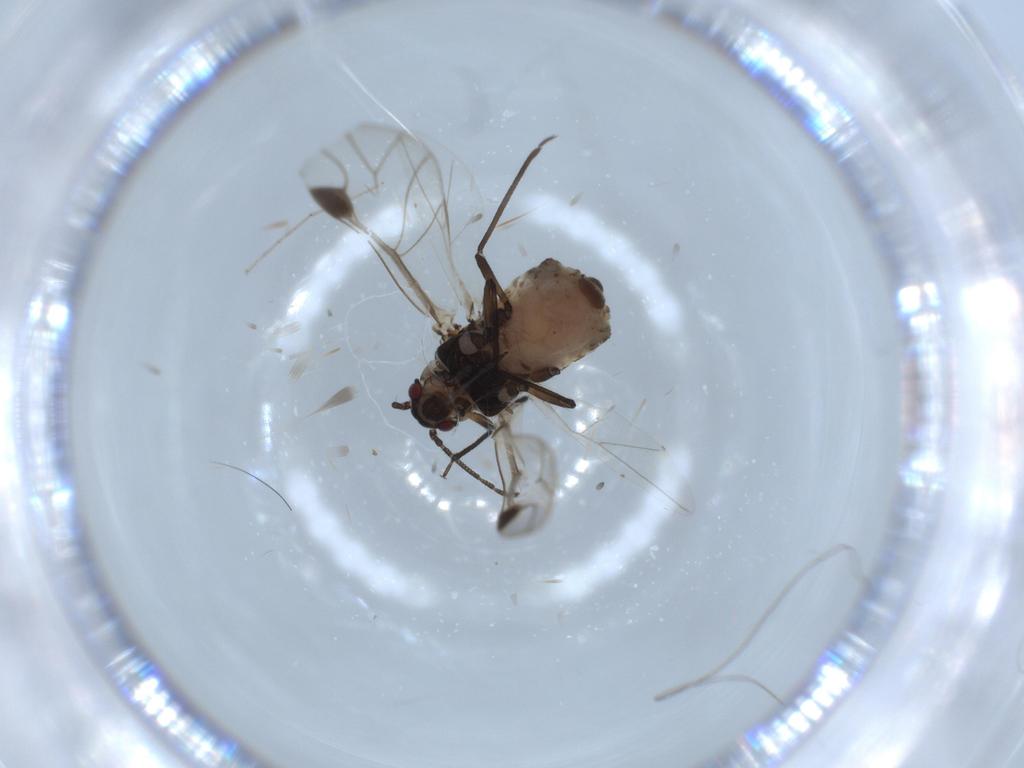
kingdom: Animalia
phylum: Arthropoda
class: Insecta
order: Hemiptera
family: Aphididae
